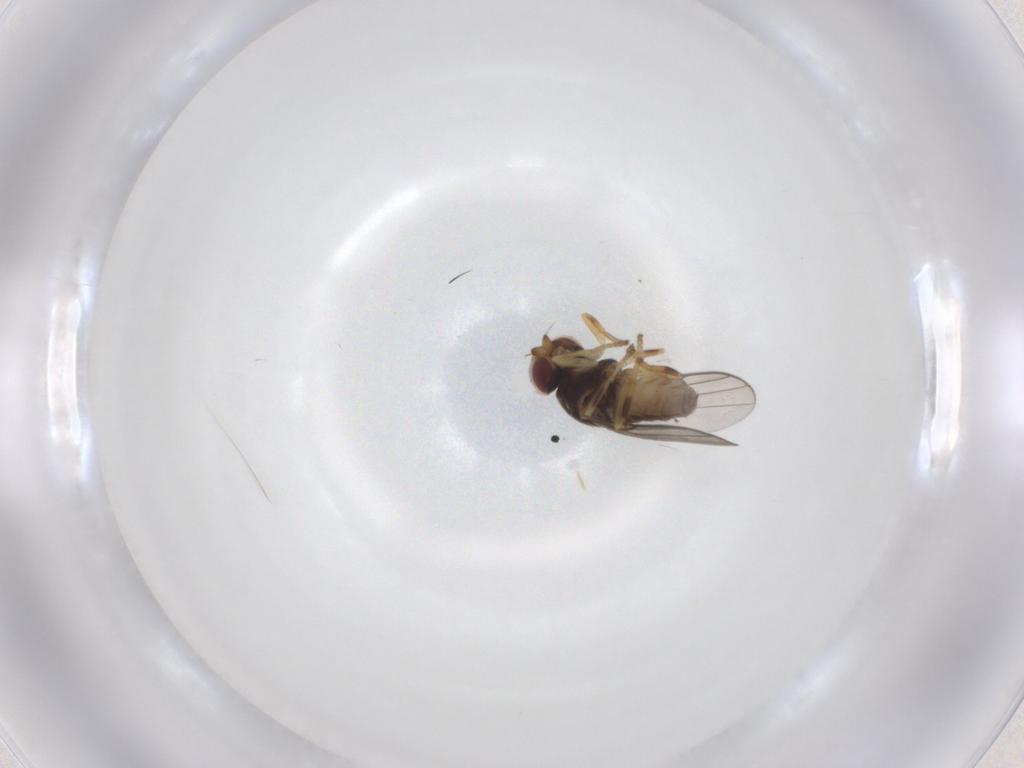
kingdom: Animalia
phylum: Arthropoda
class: Insecta
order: Diptera
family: Chloropidae
